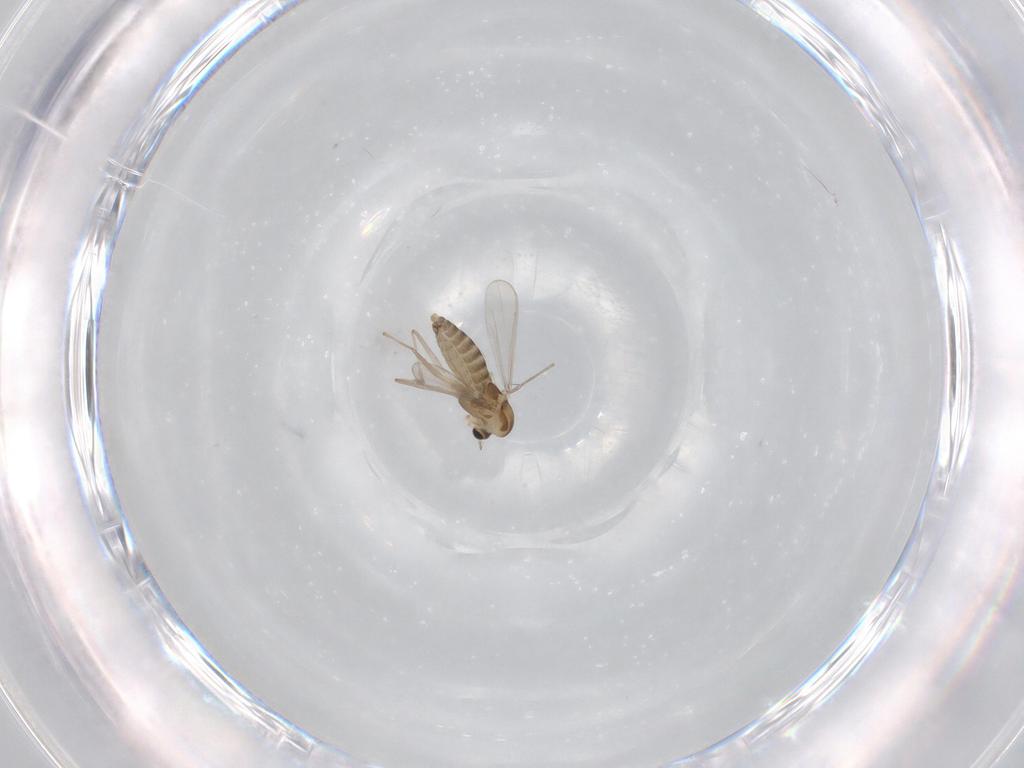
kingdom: Animalia
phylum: Arthropoda
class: Insecta
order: Diptera
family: Chironomidae
